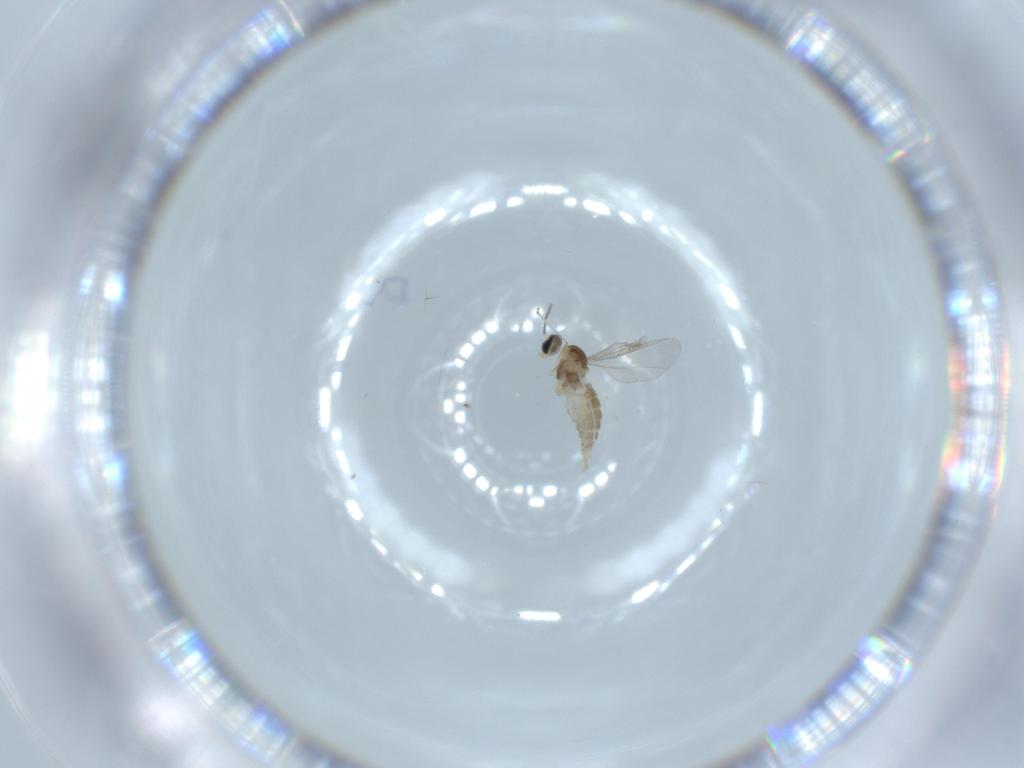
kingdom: Animalia
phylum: Arthropoda
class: Insecta
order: Diptera
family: Cecidomyiidae
